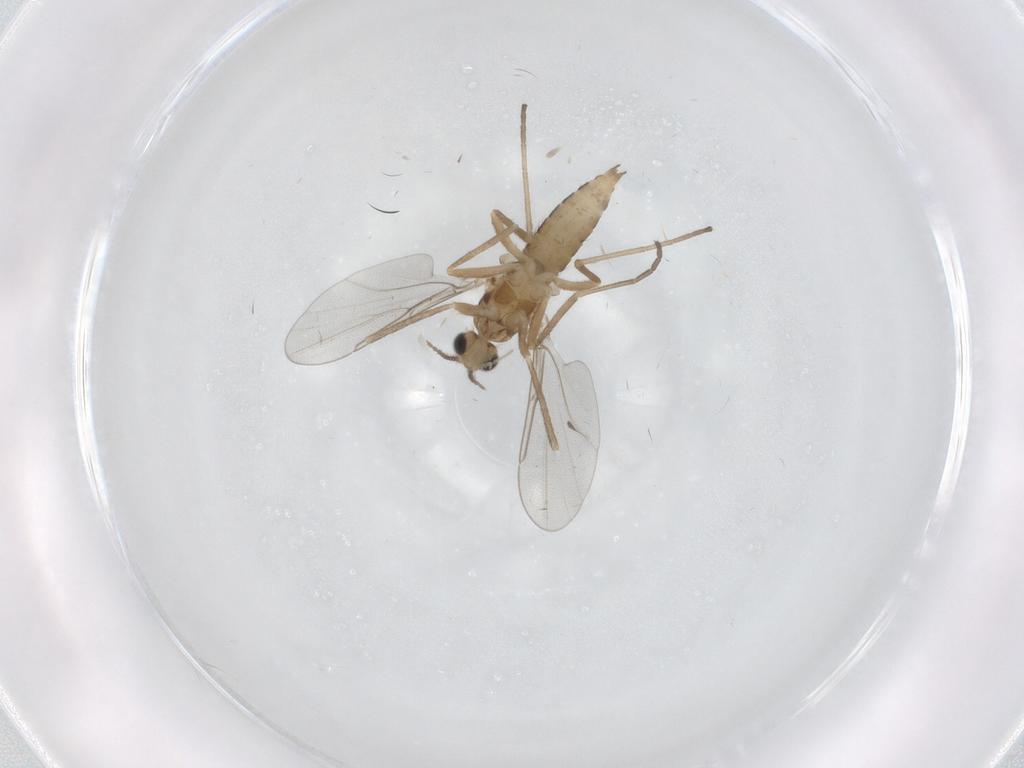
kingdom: Animalia
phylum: Arthropoda
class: Insecta
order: Diptera
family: Cecidomyiidae
